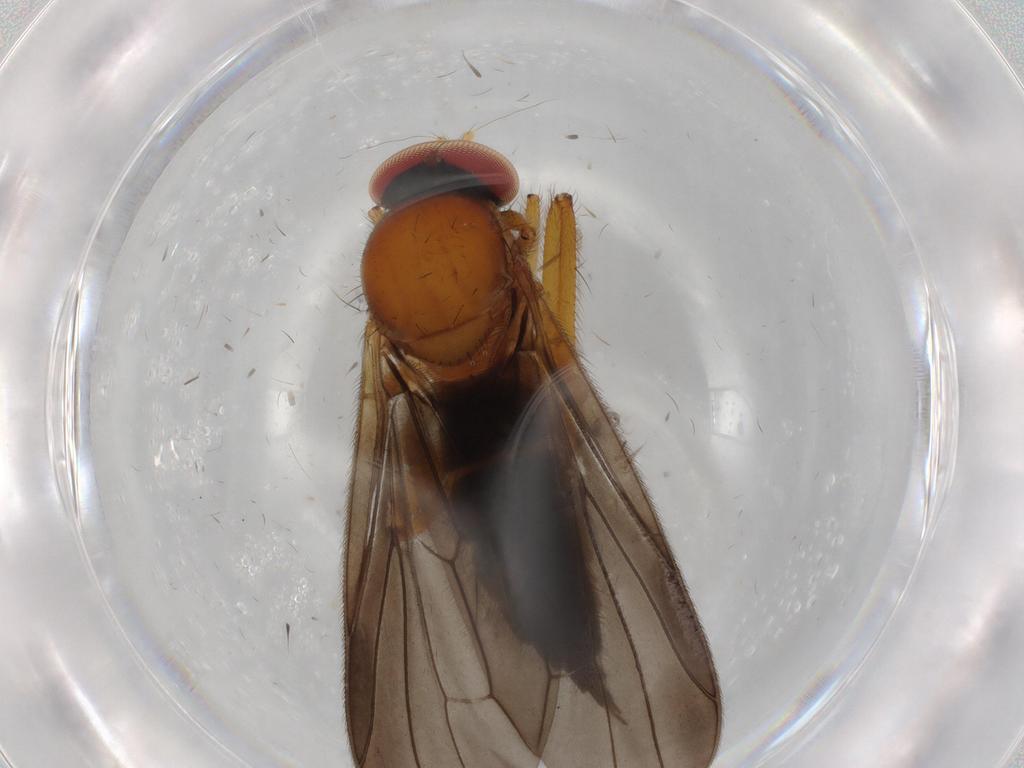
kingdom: Animalia
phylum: Arthropoda
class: Insecta
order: Diptera
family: Hybotidae
